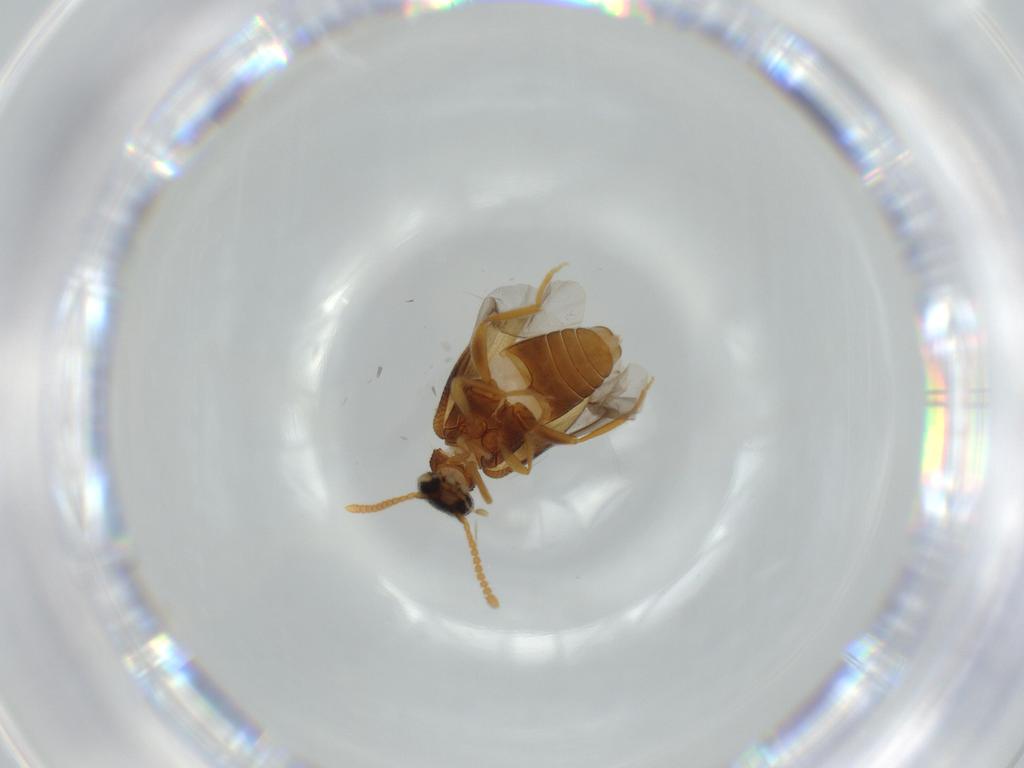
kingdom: Animalia
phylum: Arthropoda
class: Insecta
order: Coleoptera
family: Aderidae
